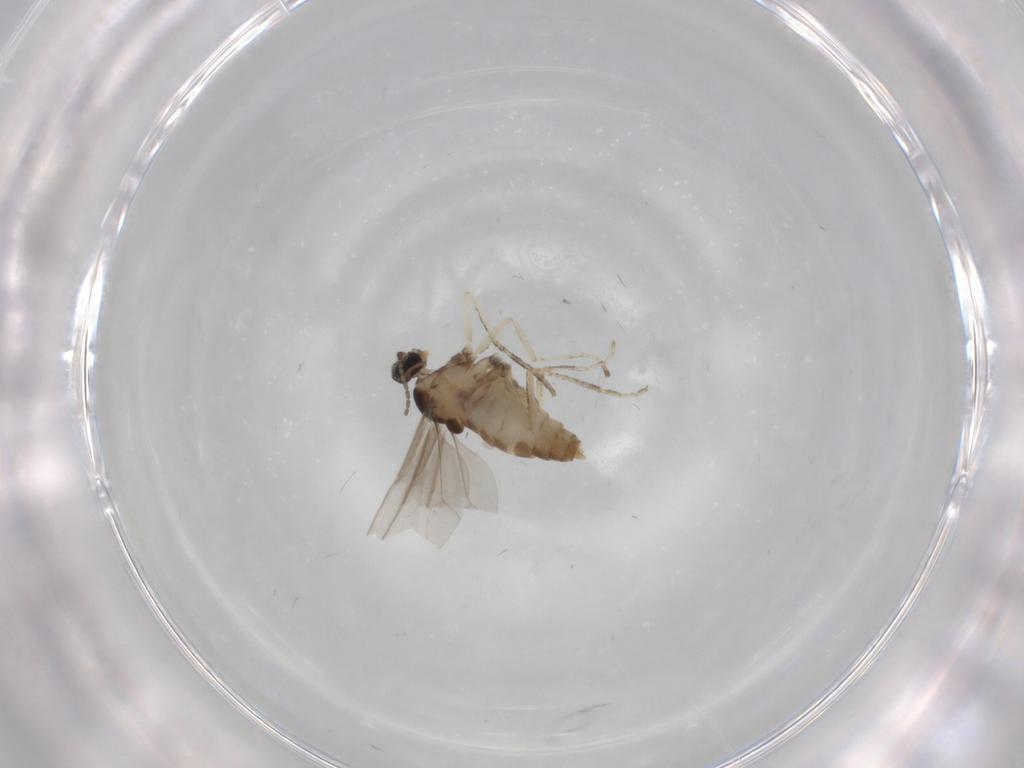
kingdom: Animalia
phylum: Arthropoda
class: Insecta
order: Diptera
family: Cecidomyiidae
